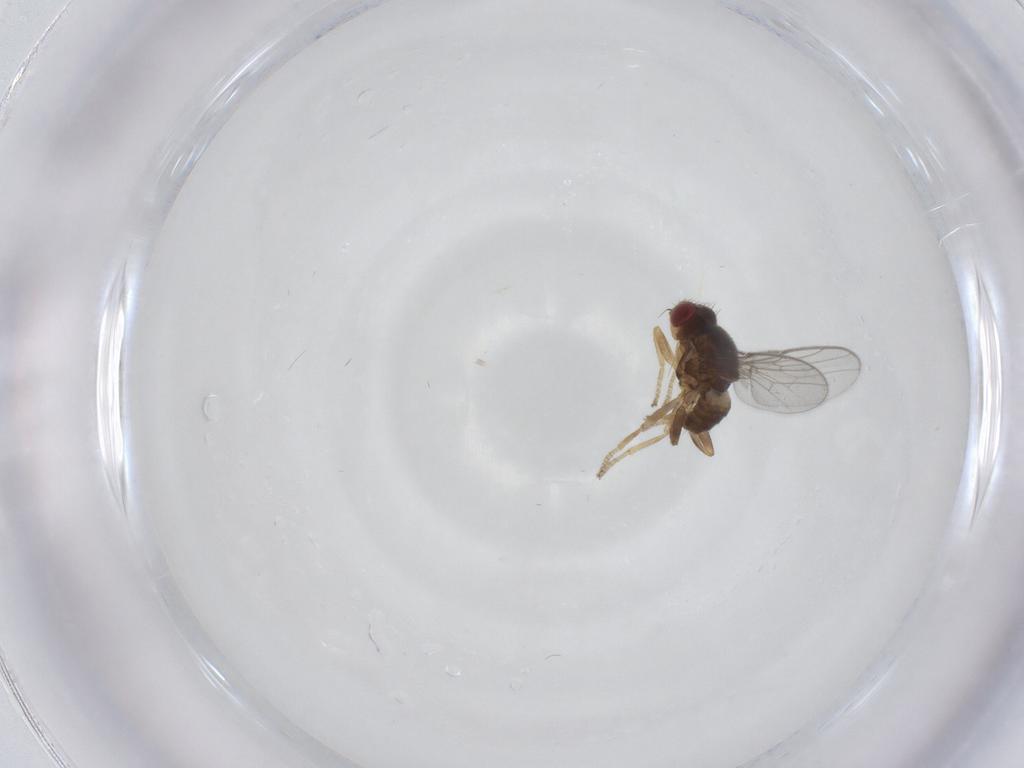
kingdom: Animalia
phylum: Arthropoda
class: Insecta
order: Diptera
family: Chloropidae
